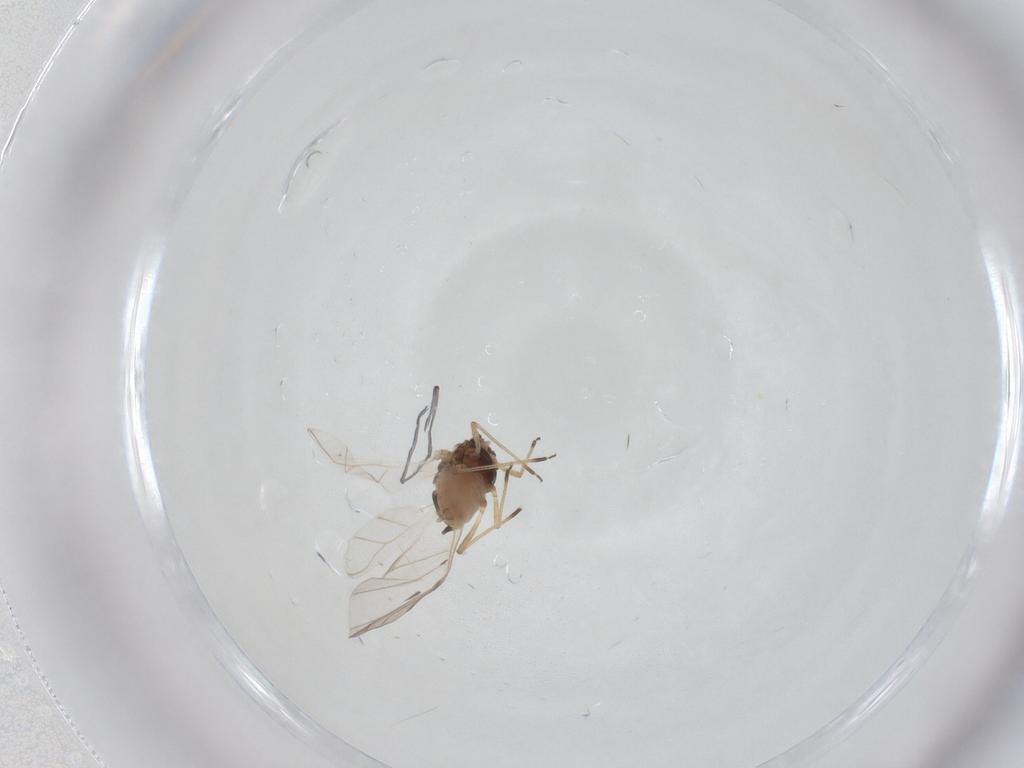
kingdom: Animalia
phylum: Arthropoda
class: Insecta
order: Hemiptera
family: Aphididae
